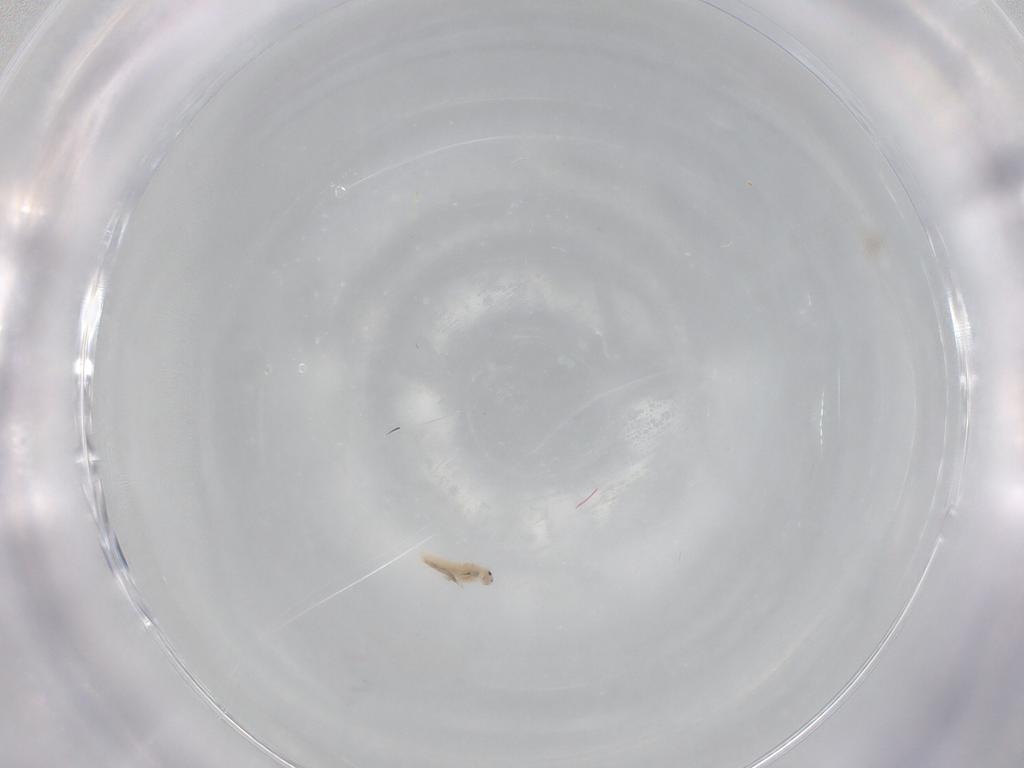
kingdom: Animalia
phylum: Arthropoda
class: Collembola
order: Entomobryomorpha
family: Entomobryidae
